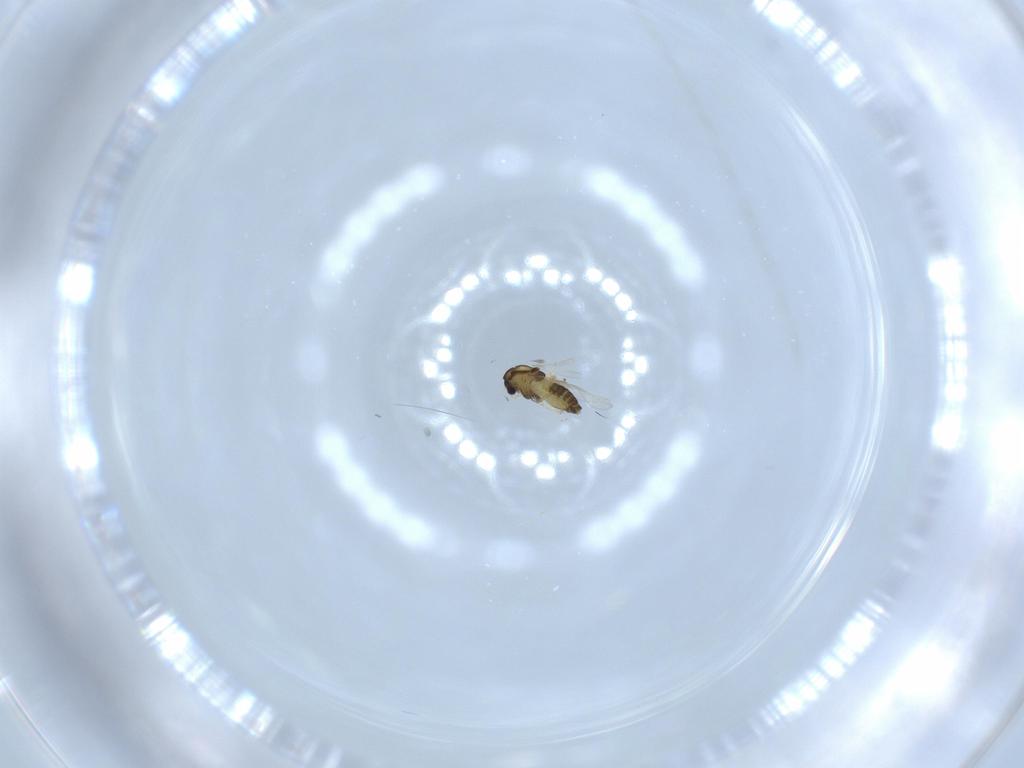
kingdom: Animalia
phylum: Arthropoda
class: Insecta
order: Diptera
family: Chironomidae
